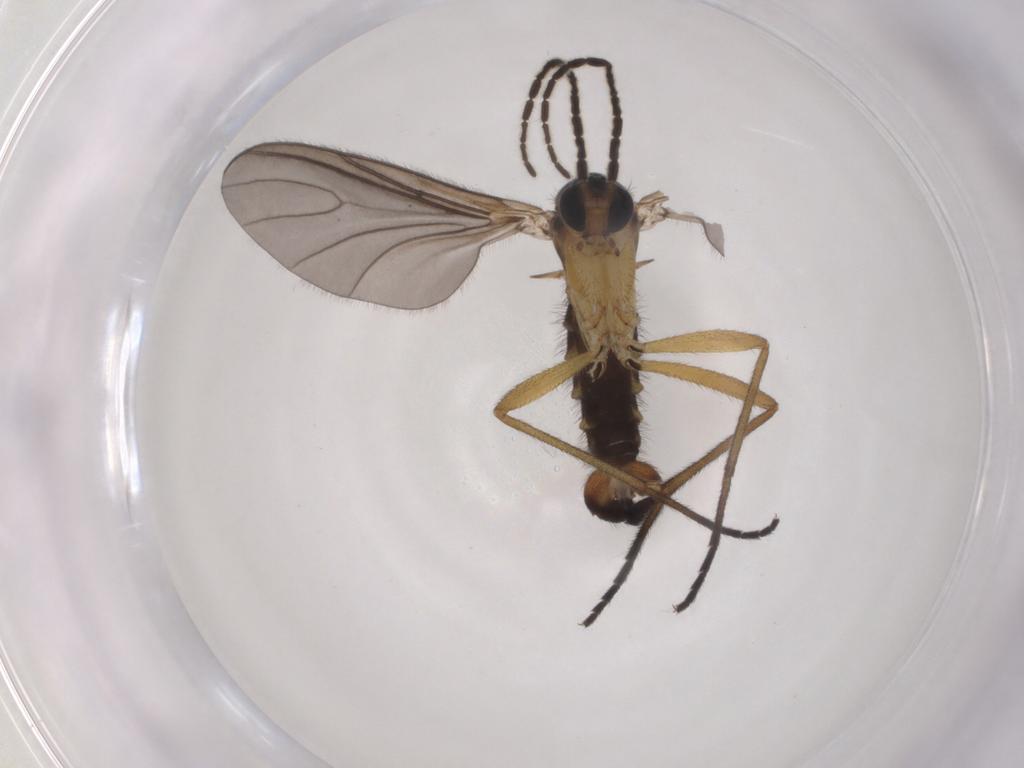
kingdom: Animalia
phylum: Arthropoda
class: Insecta
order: Diptera
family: Sciaridae
